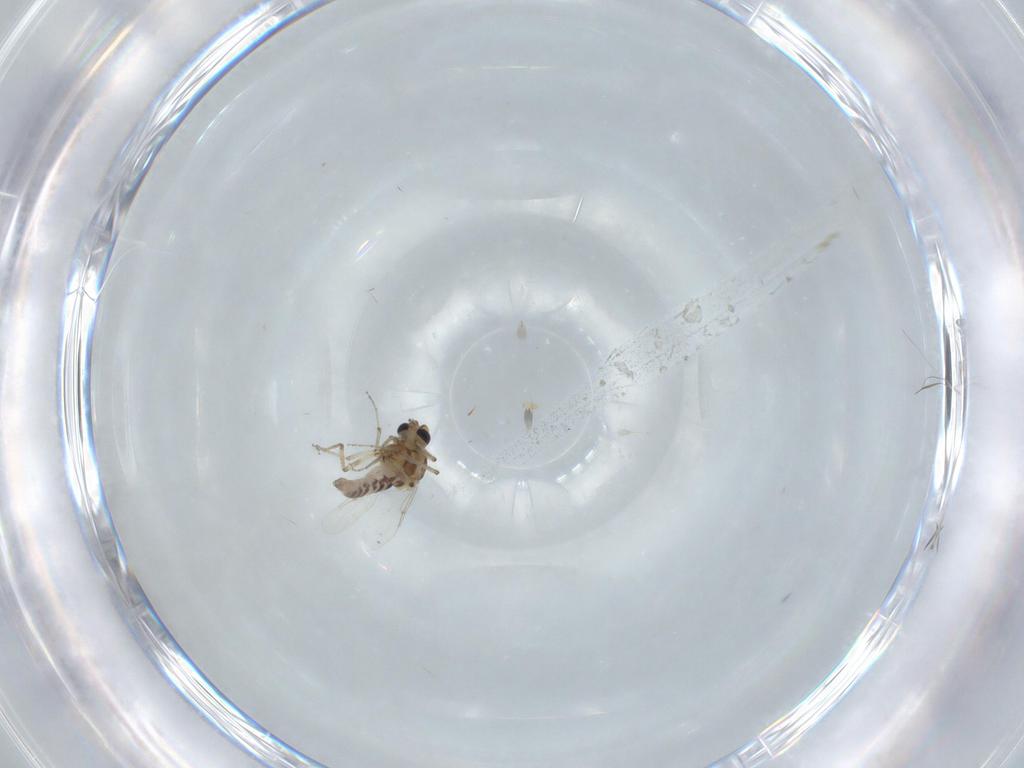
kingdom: Animalia
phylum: Arthropoda
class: Insecta
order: Diptera
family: Ceratopogonidae
